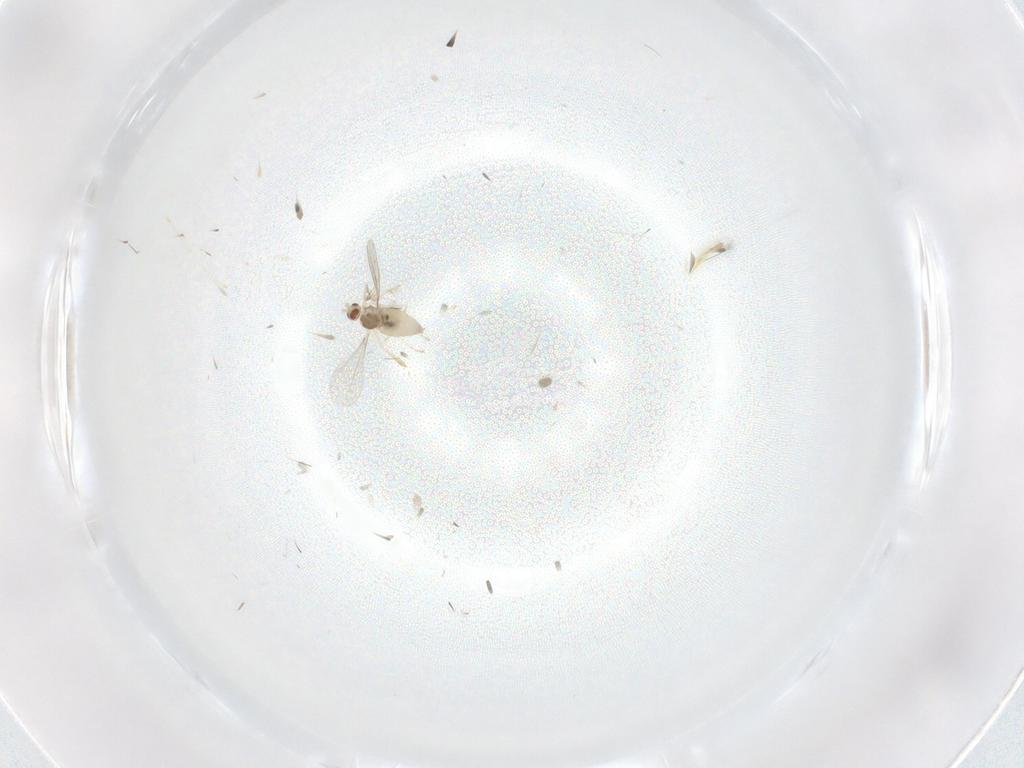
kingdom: Animalia
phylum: Arthropoda
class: Insecta
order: Diptera
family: Cecidomyiidae
